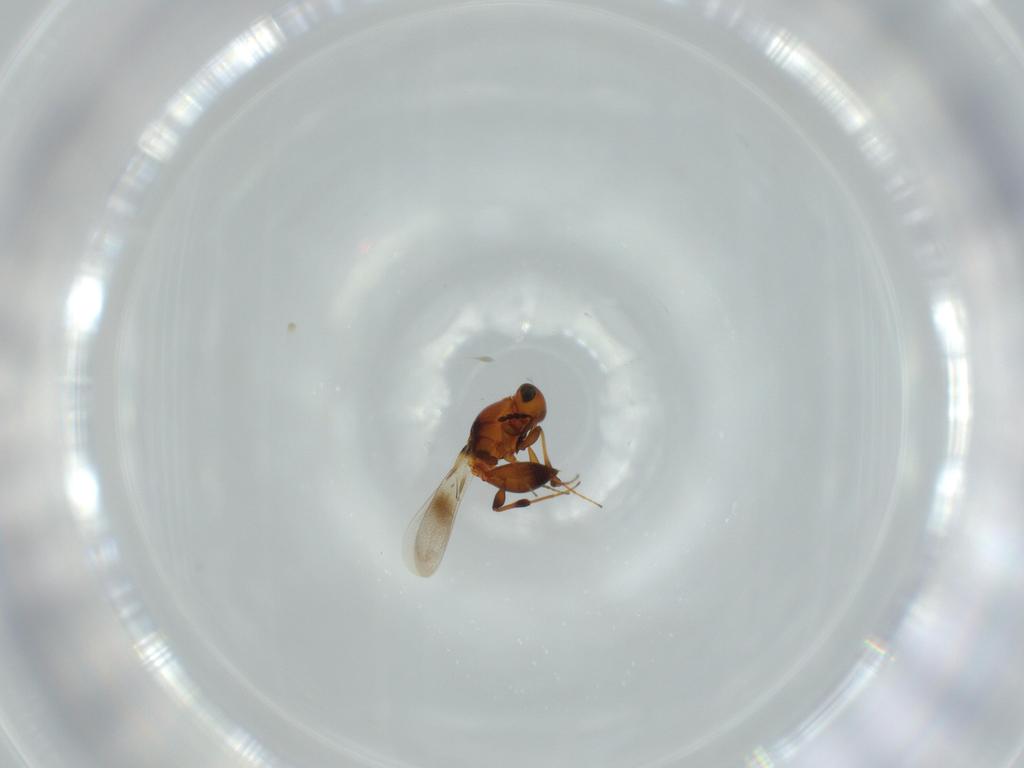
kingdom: Animalia
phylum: Arthropoda
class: Insecta
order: Hymenoptera
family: Platygastridae
